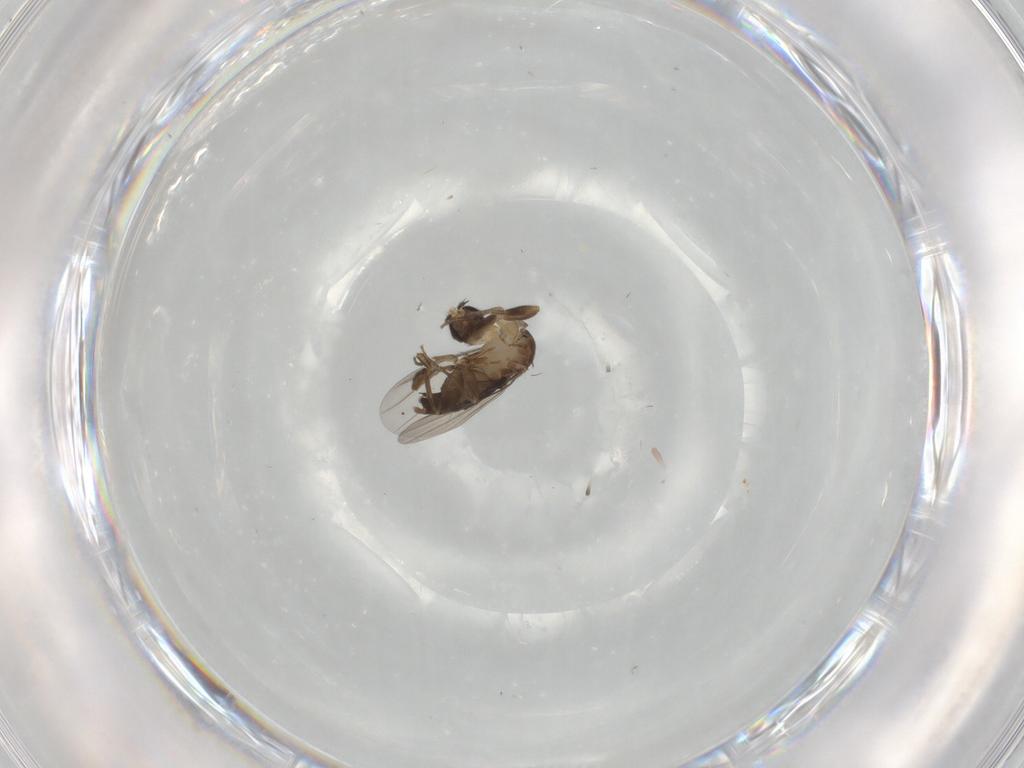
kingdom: Animalia
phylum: Arthropoda
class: Insecta
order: Diptera
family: Phoridae
